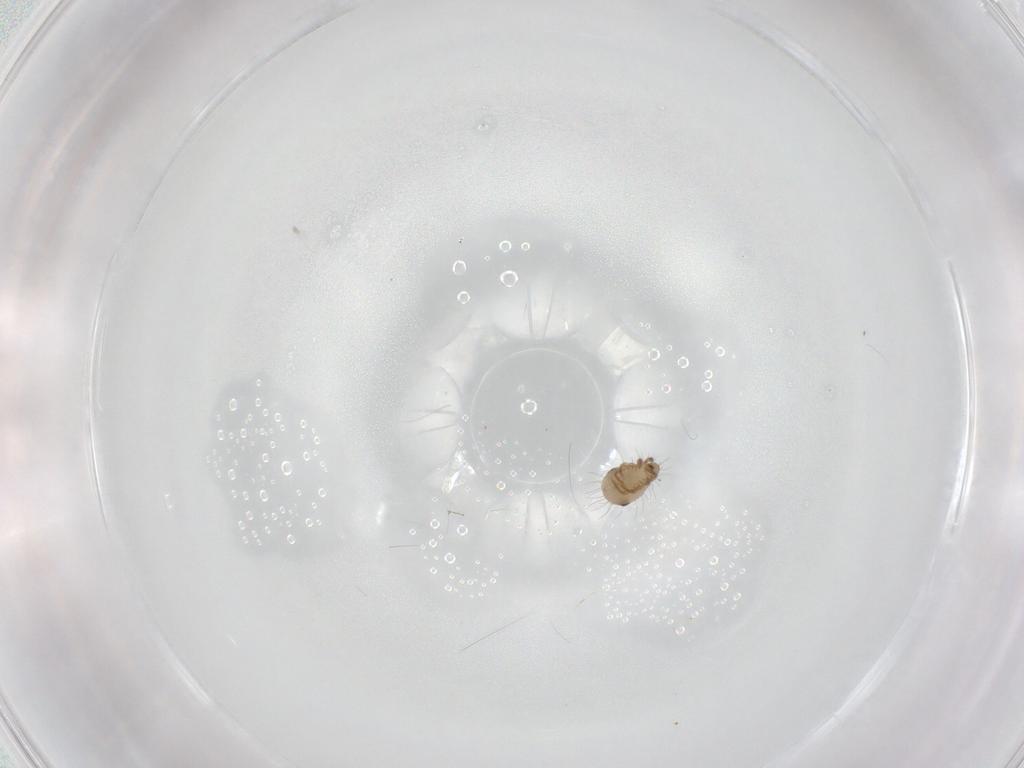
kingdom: Animalia
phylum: Arthropoda
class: Arachnida
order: Trombidiformes
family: Lebertiidae
